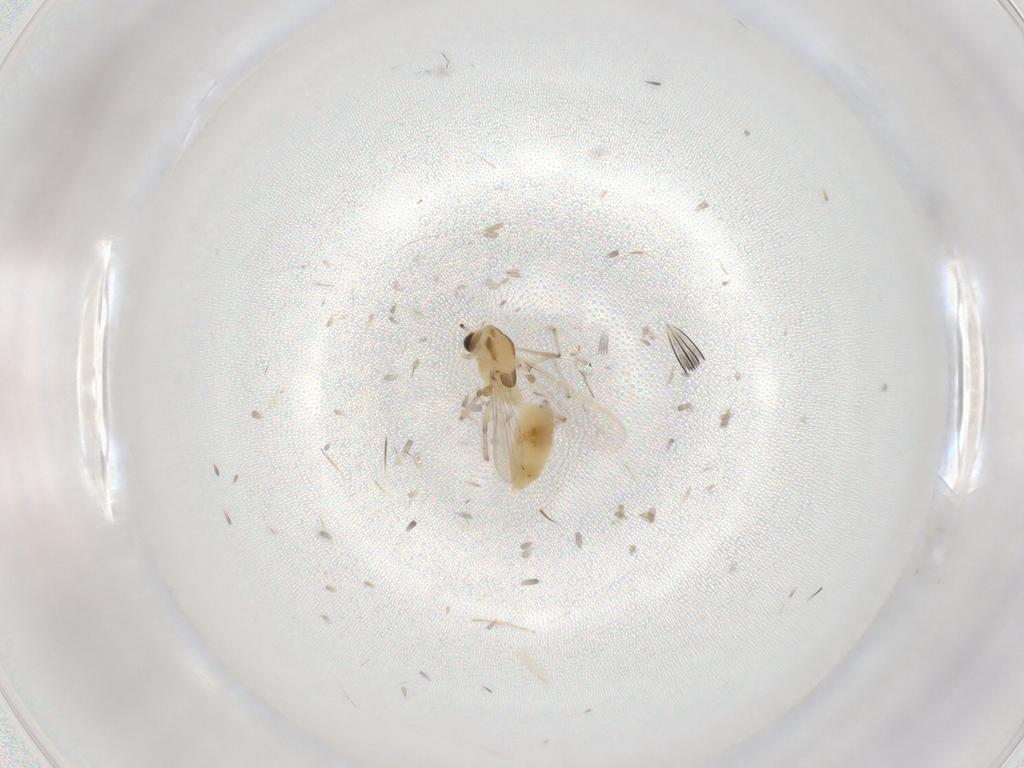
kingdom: Animalia
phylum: Arthropoda
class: Insecta
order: Diptera
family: Chironomidae
